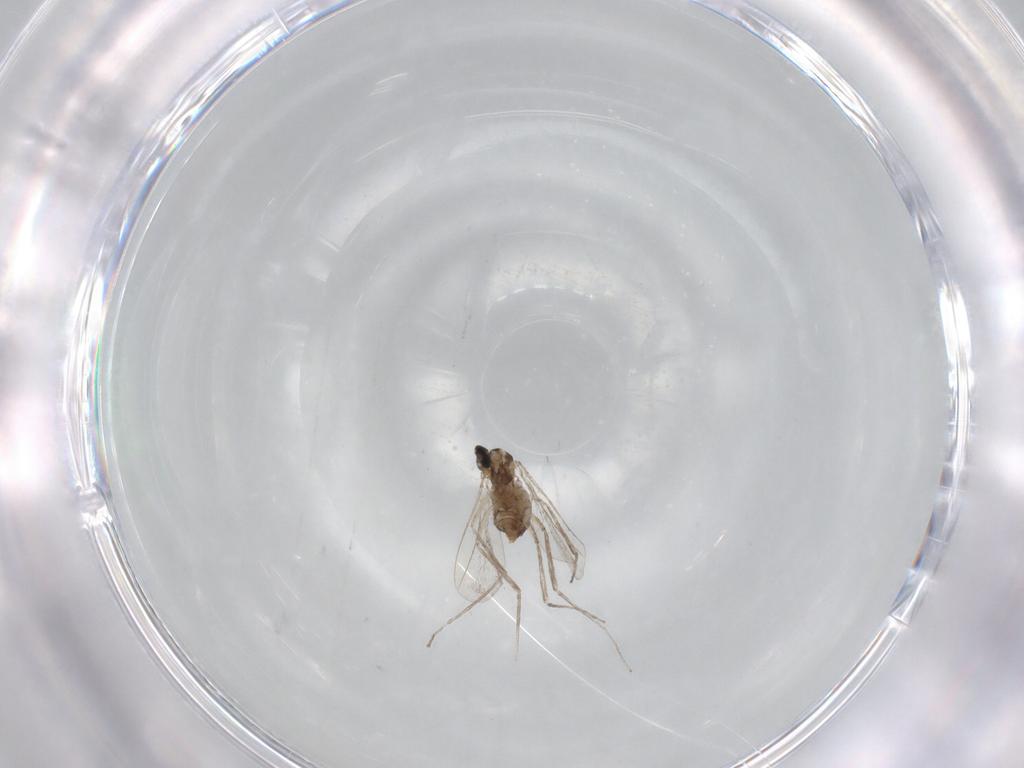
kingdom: Animalia
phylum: Arthropoda
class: Insecta
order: Diptera
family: Cecidomyiidae
